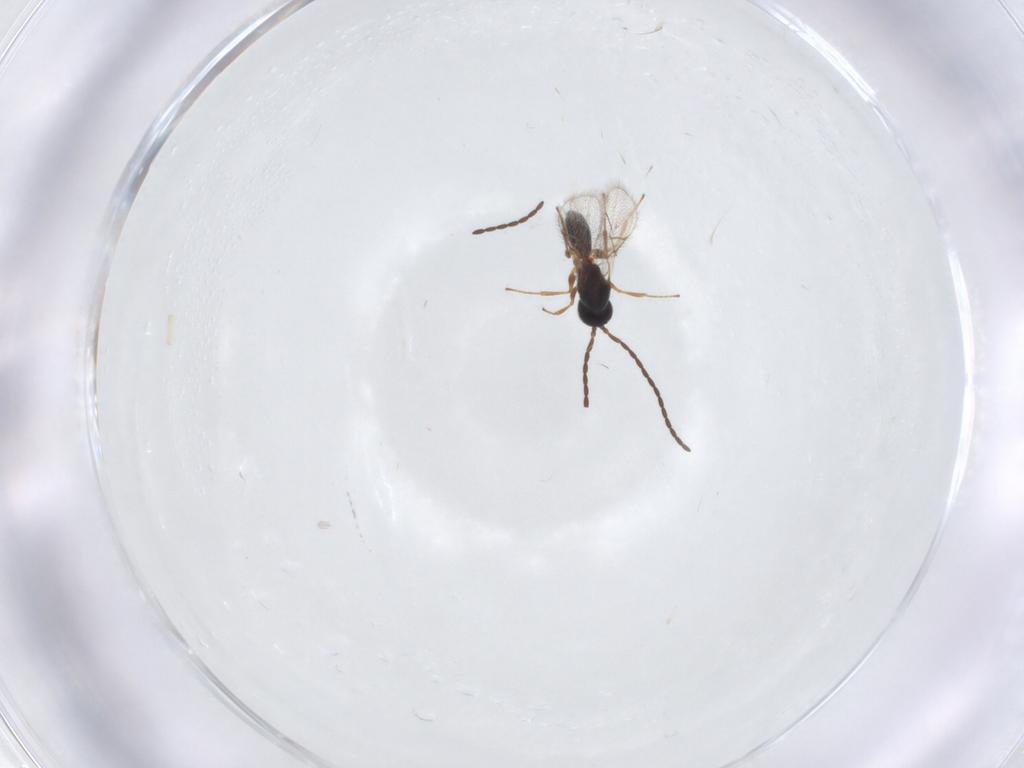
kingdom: Animalia
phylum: Arthropoda
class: Insecta
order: Hymenoptera
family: Figitidae
